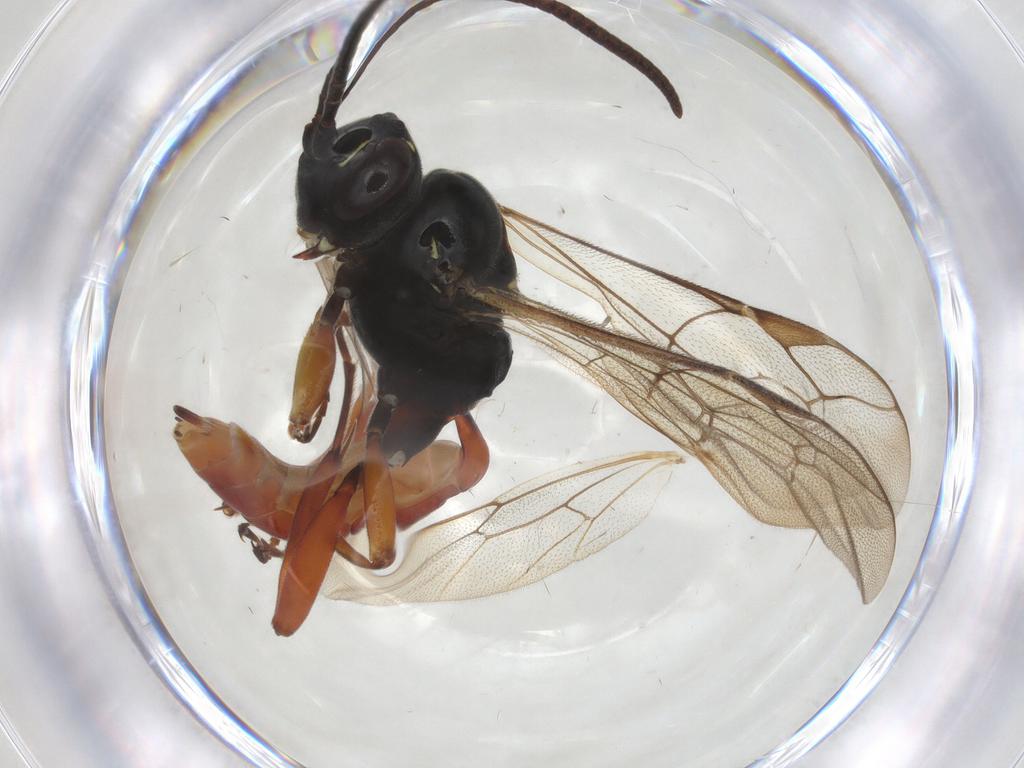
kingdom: Animalia
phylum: Arthropoda
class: Insecta
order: Hymenoptera
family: Ichneumonidae
